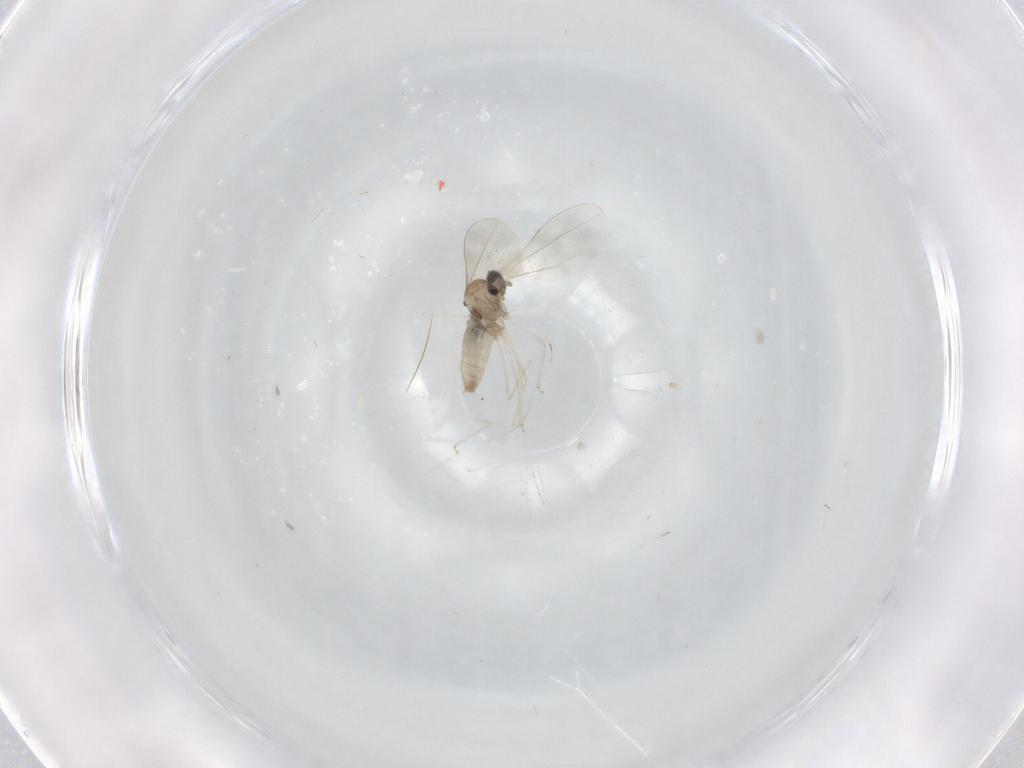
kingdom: Animalia
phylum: Arthropoda
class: Insecta
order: Diptera
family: Cecidomyiidae
